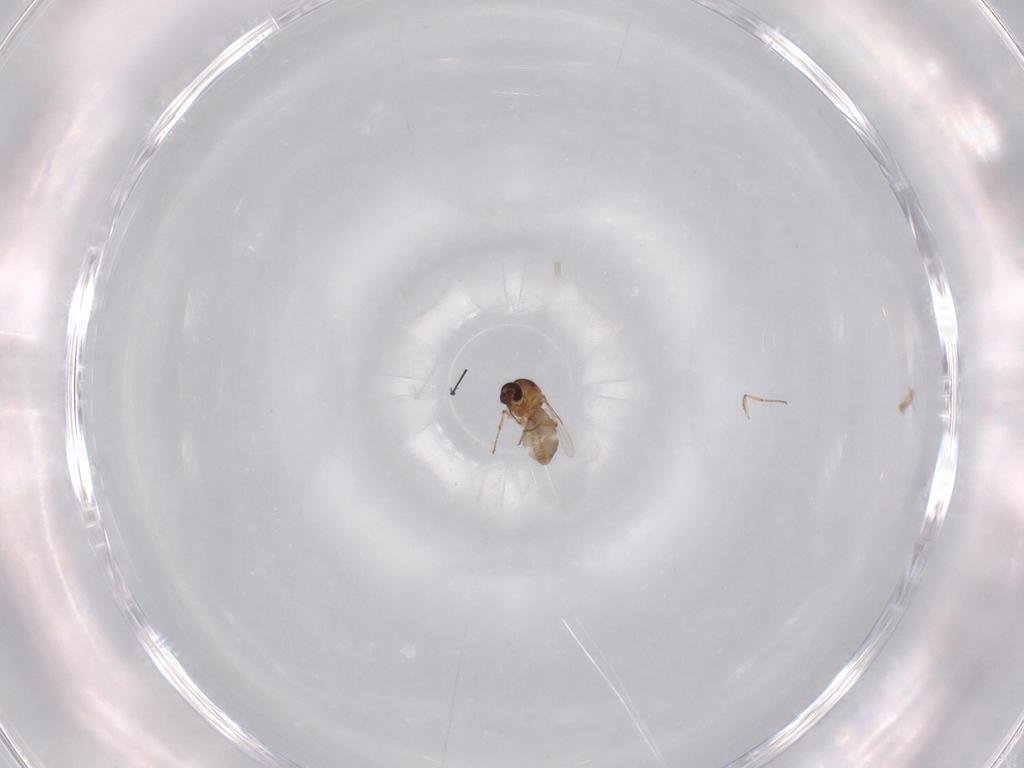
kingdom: Animalia
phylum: Arthropoda
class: Insecta
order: Diptera
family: Ceratopogonidae
